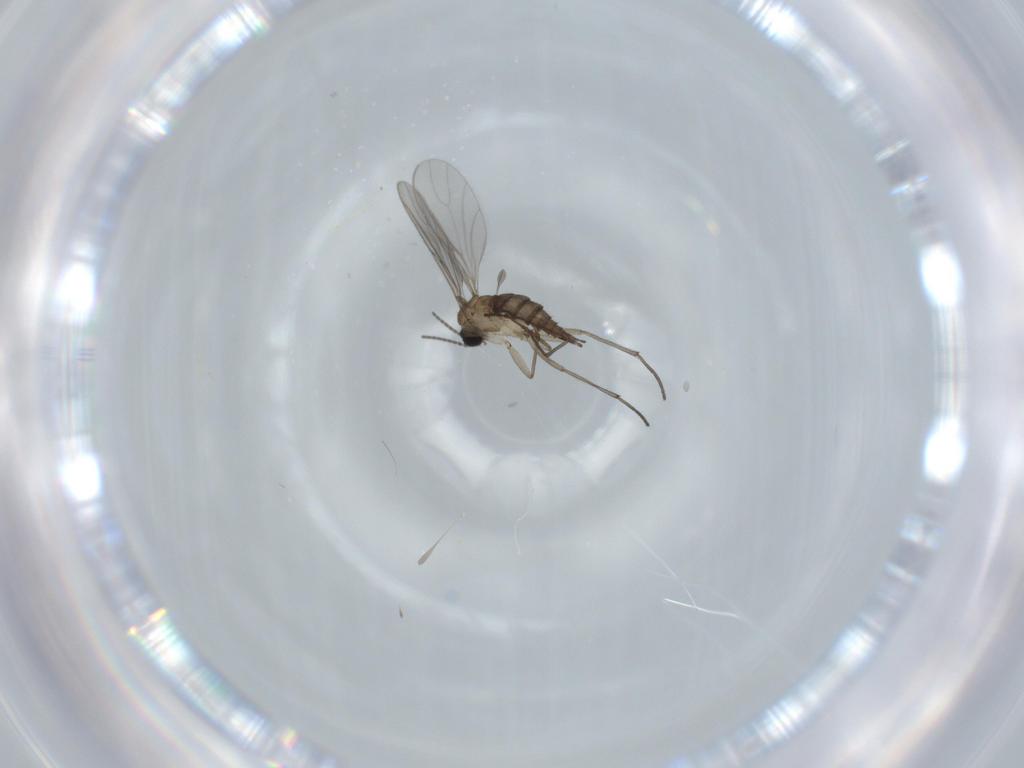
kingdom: Animalia
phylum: Arthropoda
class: Insecta
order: Diptera
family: Sciaridae
